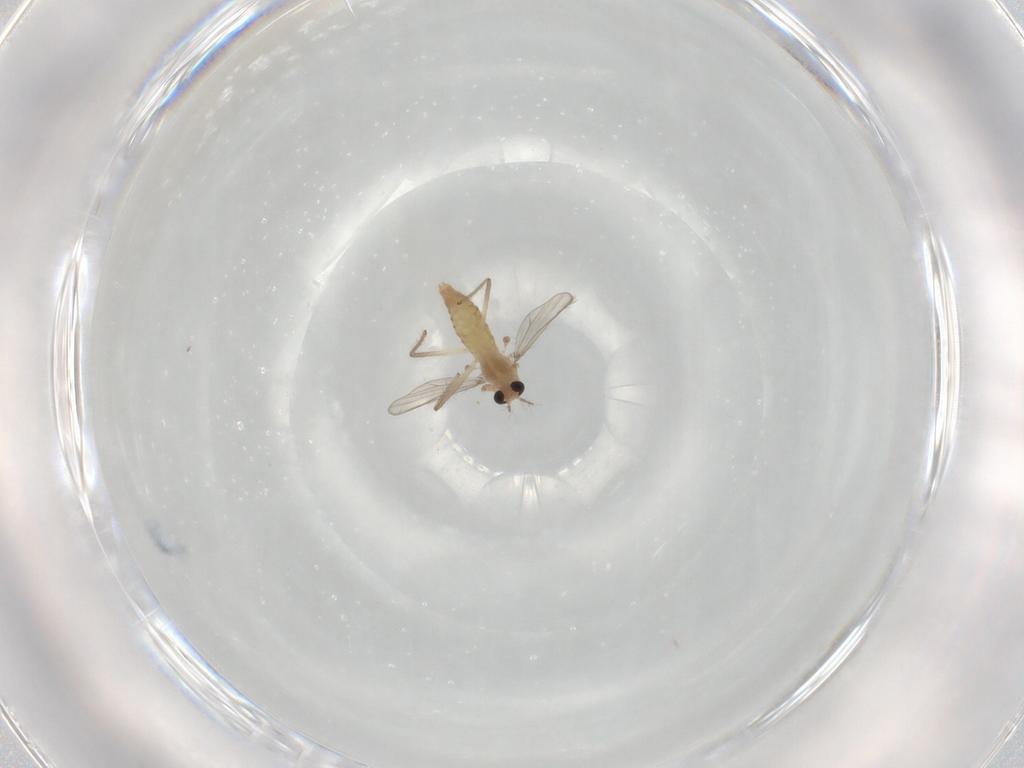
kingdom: Animalia
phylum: Arthropoda
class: Insecta
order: Diptera
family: Chironomidae
